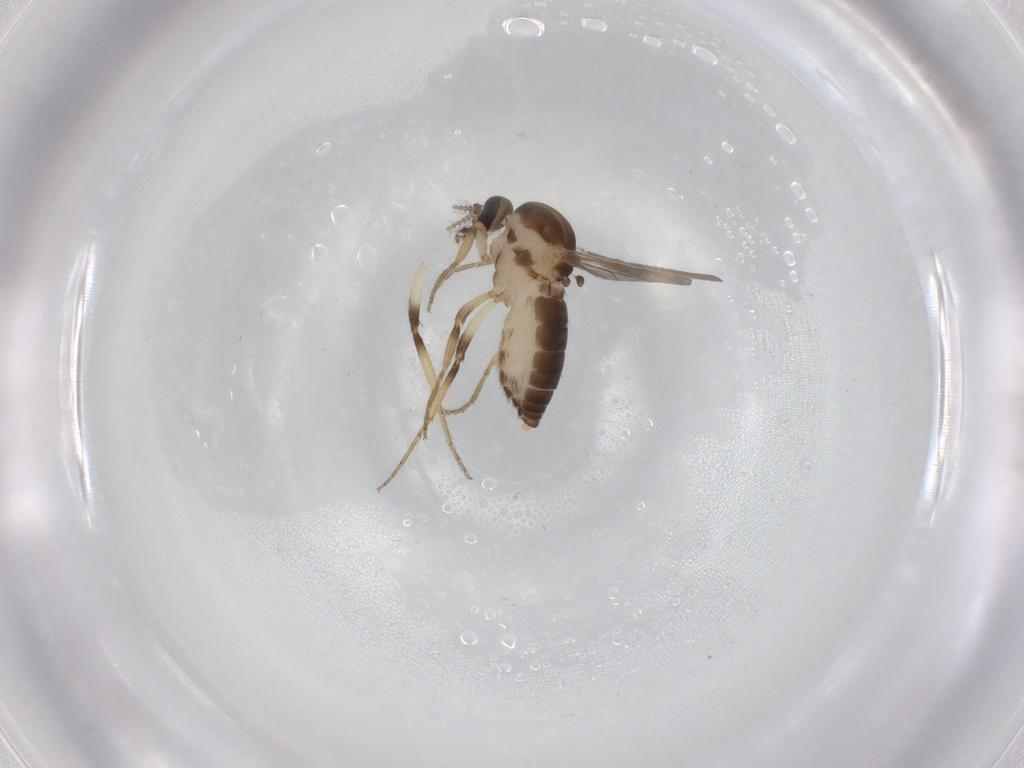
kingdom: Animalia
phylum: Arthropoda
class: Insecta
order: Diptera
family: Ceratopogonidae
